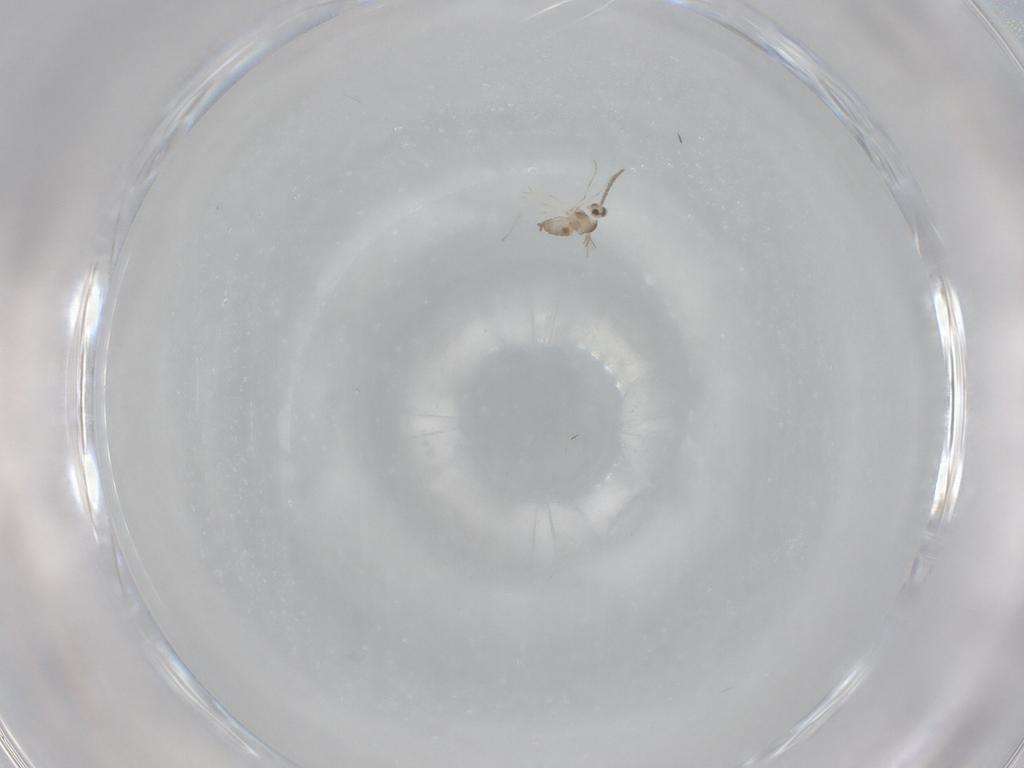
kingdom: Animalia
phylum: Arthropoda
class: Insecta
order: Diptera
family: Cecidomyiidae
